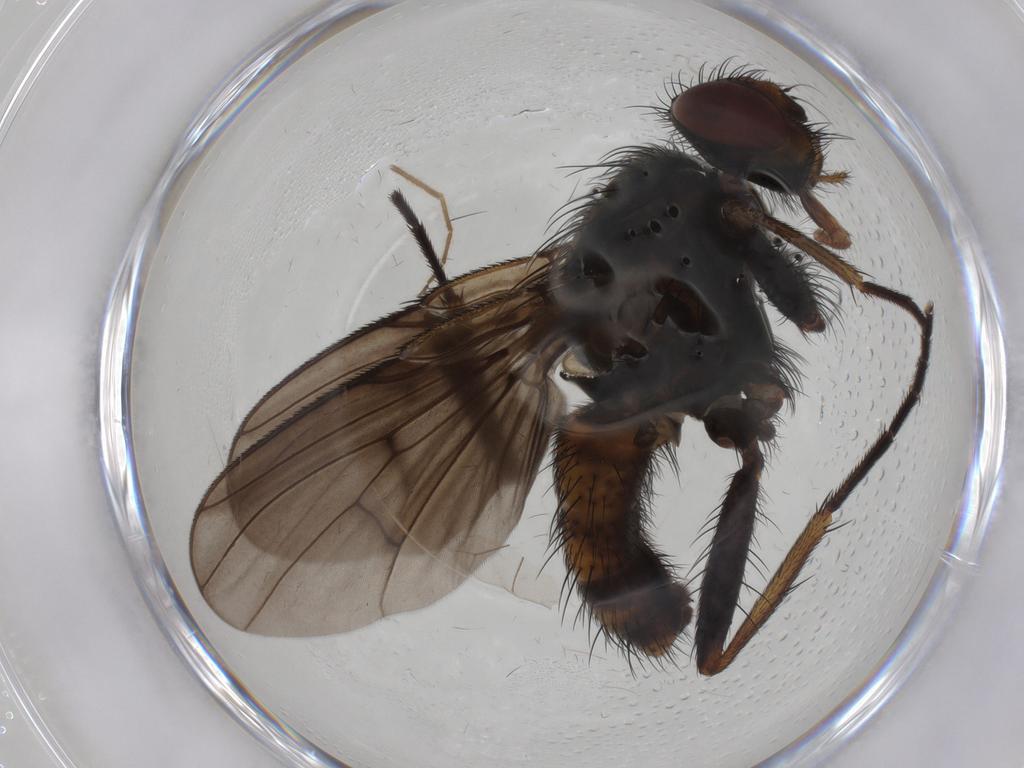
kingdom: Animalia
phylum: Arthropoda
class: Insecta
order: Diptera
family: Muscidae
